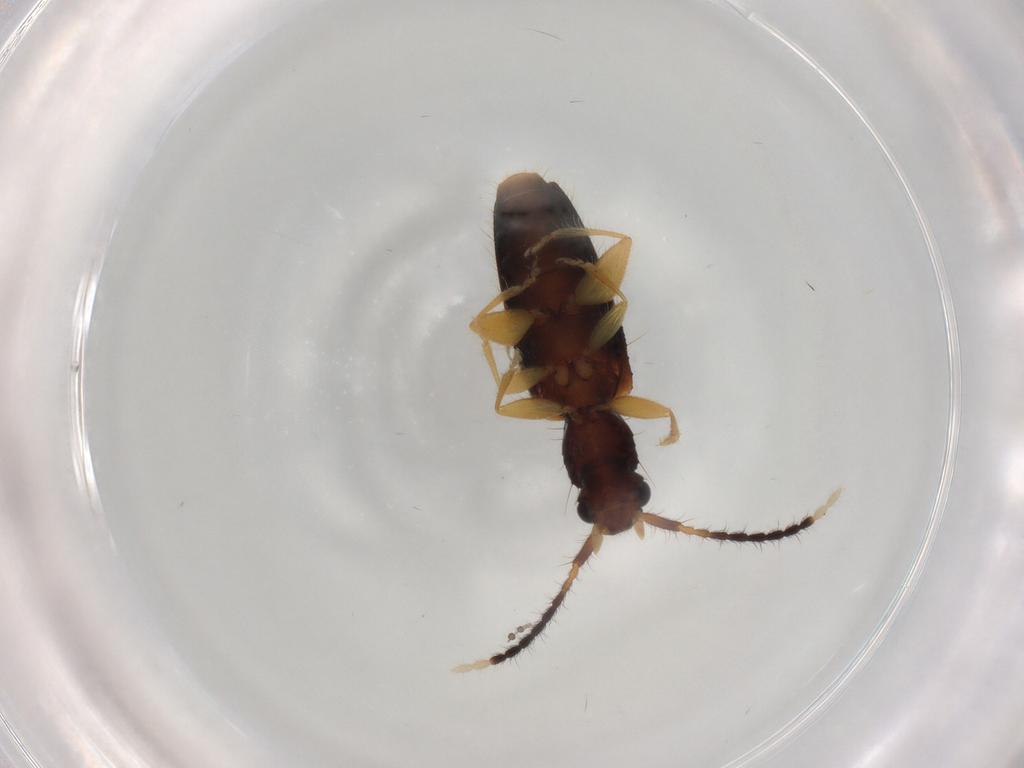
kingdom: Animalia
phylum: Arthropoda
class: Insecta
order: Coleoptera
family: Silvanidae
